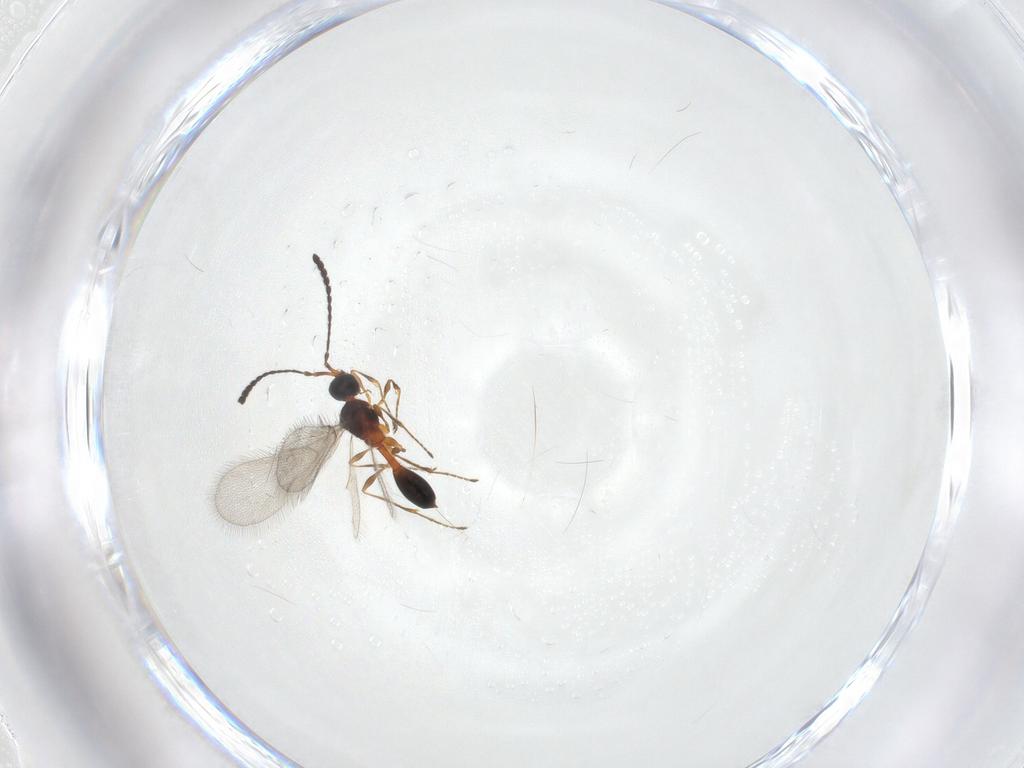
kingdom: Animalia
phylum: Arthropoda
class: Insecta
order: Hymenoptera
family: Diapriidae
